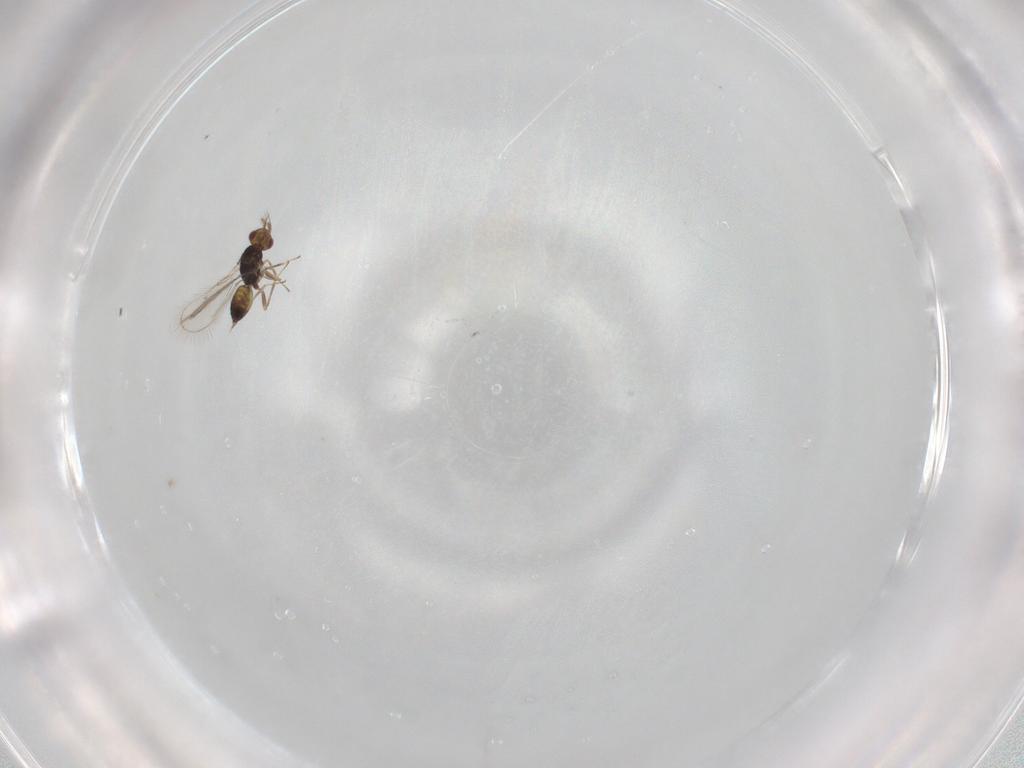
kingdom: Animalia
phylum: Arthropoda
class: Insecta
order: Hymenoptera
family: Eulophidae
